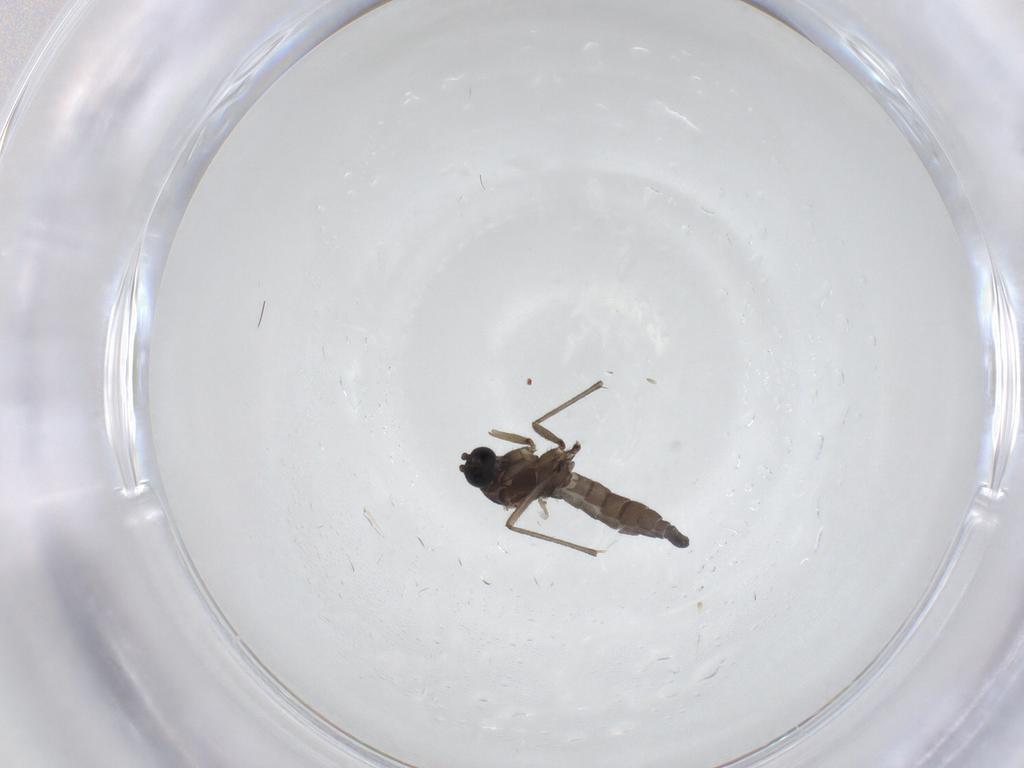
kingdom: Animalia
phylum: Arthropoda
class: Insecta
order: Diptera
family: Sciaridae
